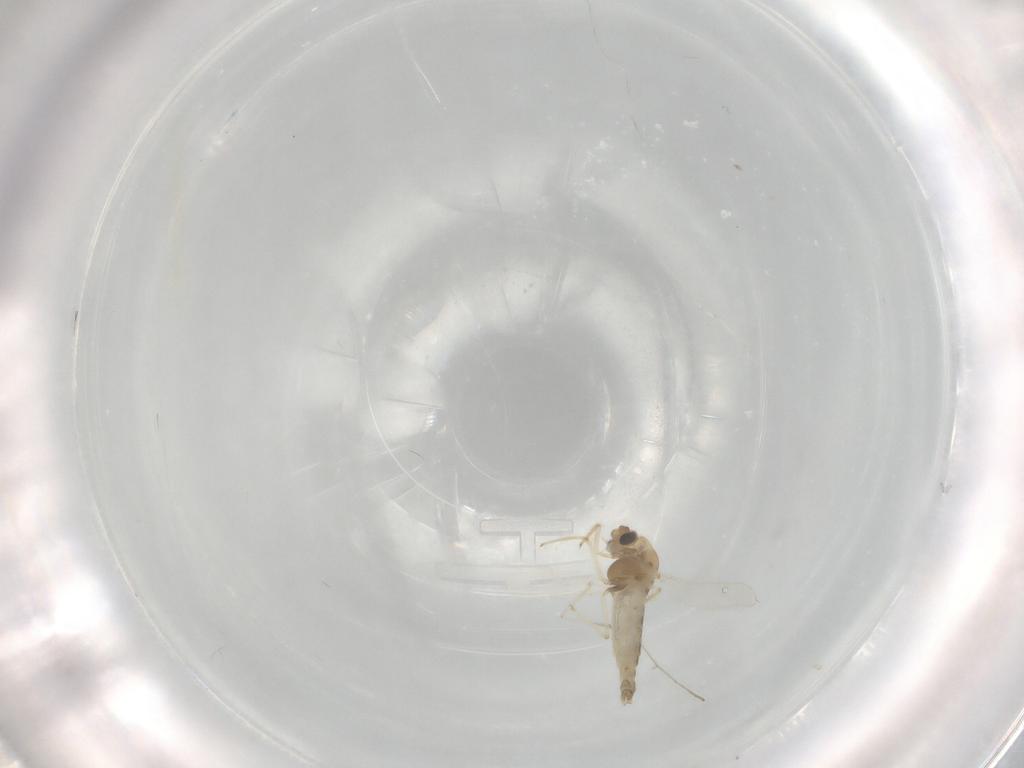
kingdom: Animalia
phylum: Arthropoda
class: Insecta
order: Diptera
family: Chironomidae
